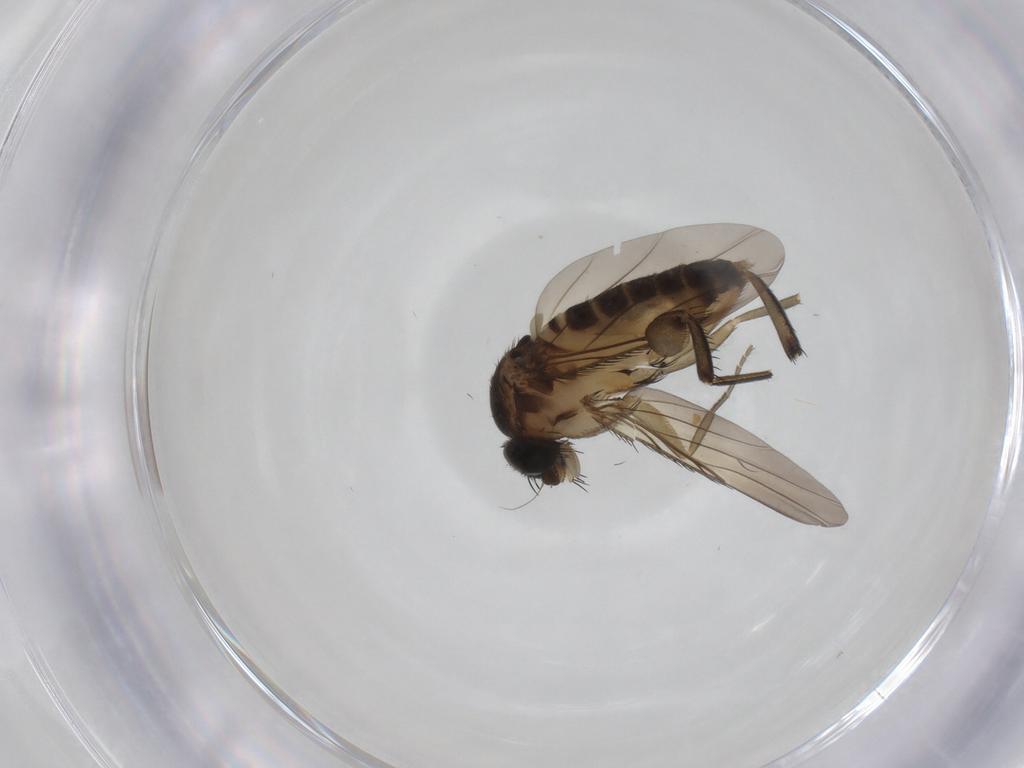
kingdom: Animalia
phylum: Arthropoda
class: Insecta
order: Diptera
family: Phoridae
